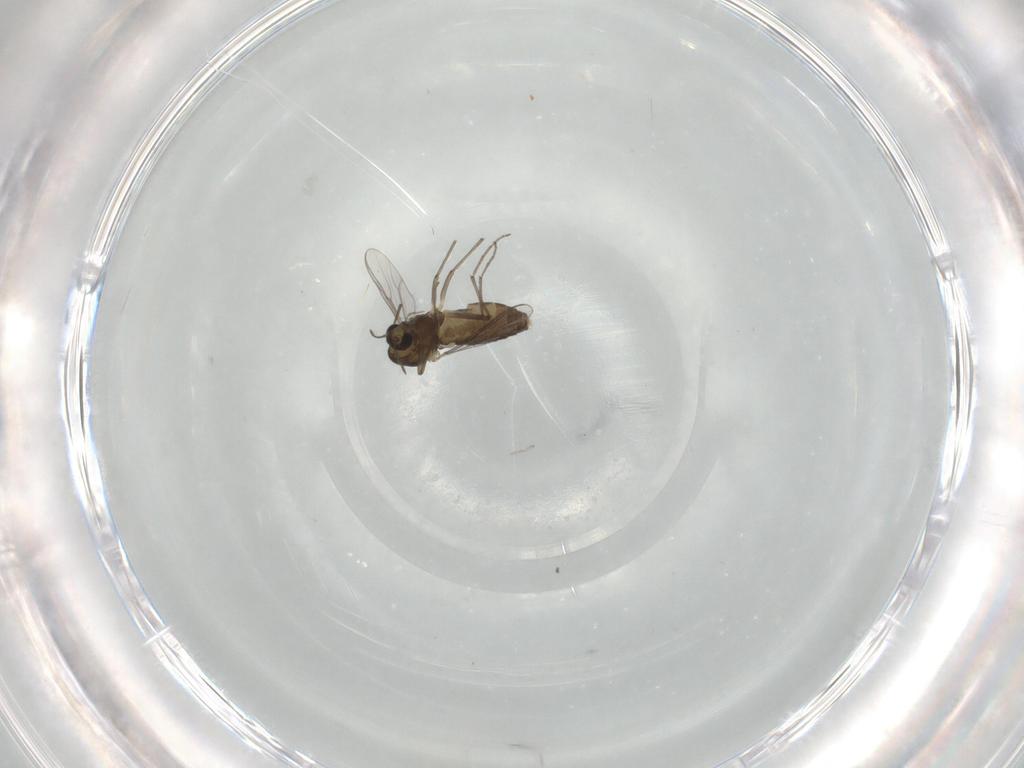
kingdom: Animalia
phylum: Arthropoda
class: Insecta
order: Diptera
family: Chironomidae
